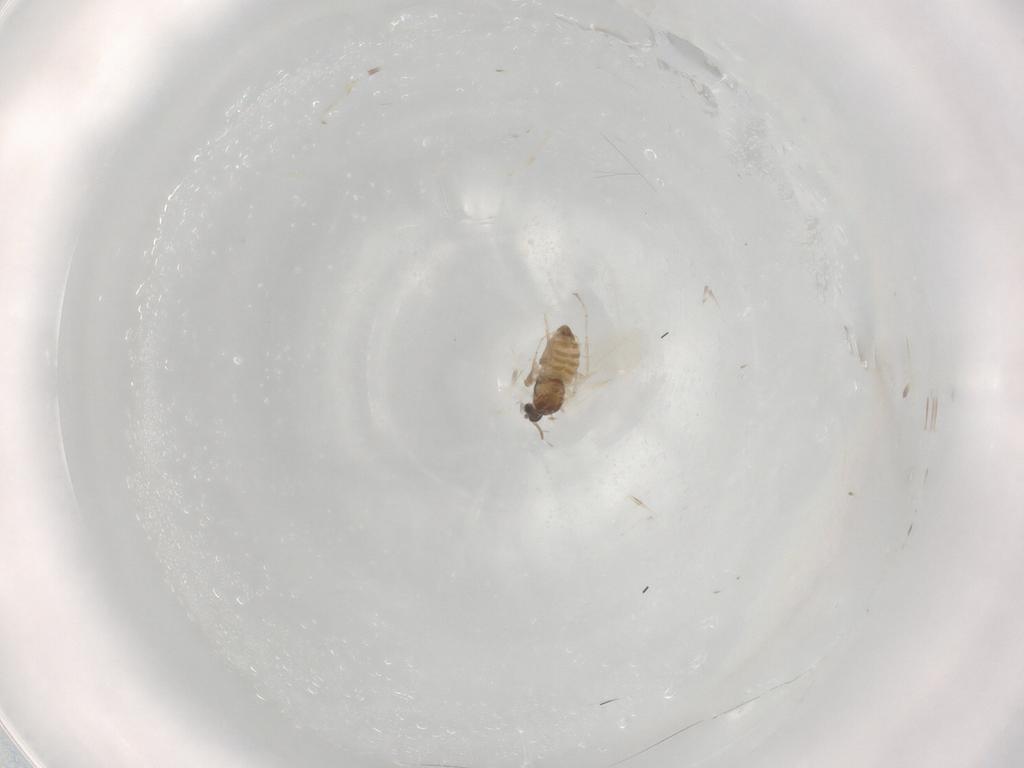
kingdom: Animalia
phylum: Arthropoda
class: Insecta
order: Diptera
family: Cecidomyiidae
